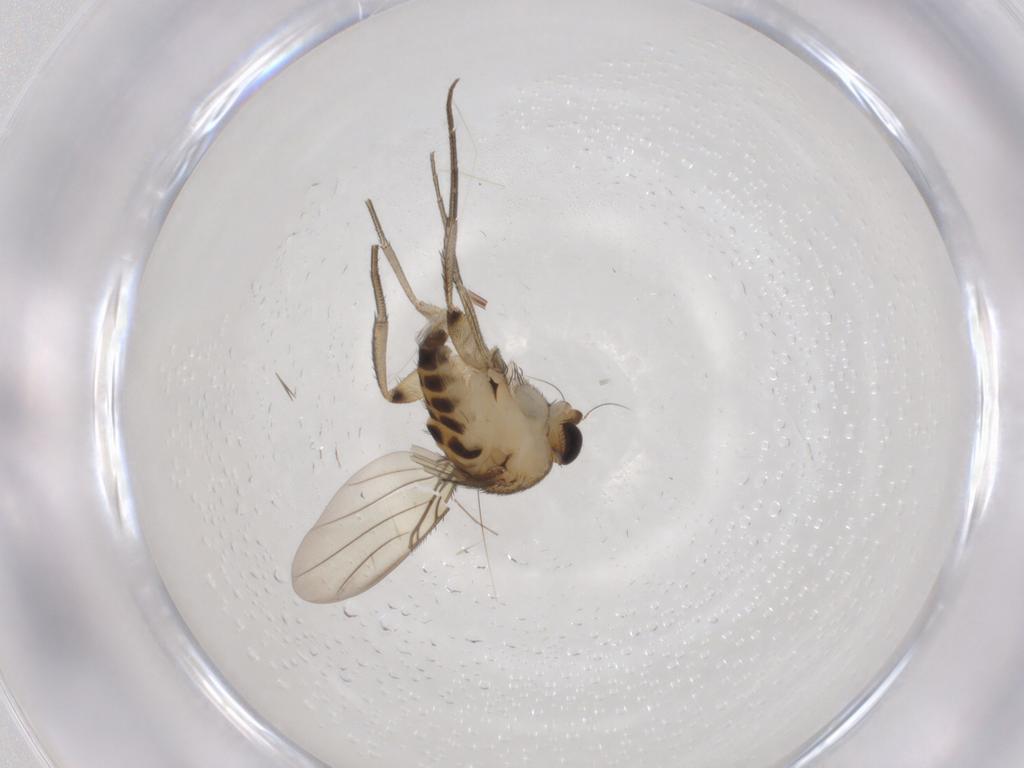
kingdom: Animalia
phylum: Arthropoda
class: Insecta
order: Diptera
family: Phoridae
